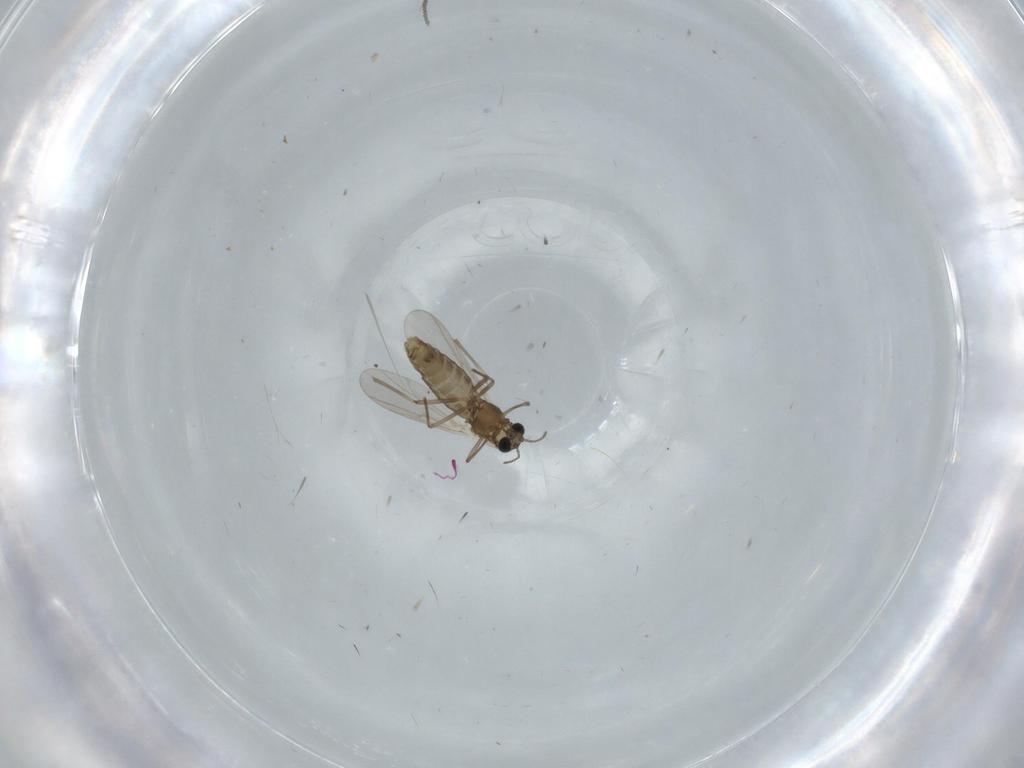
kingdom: Animalia
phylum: Arthropoda
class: Insecta
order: Diptera
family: Chironomidae
